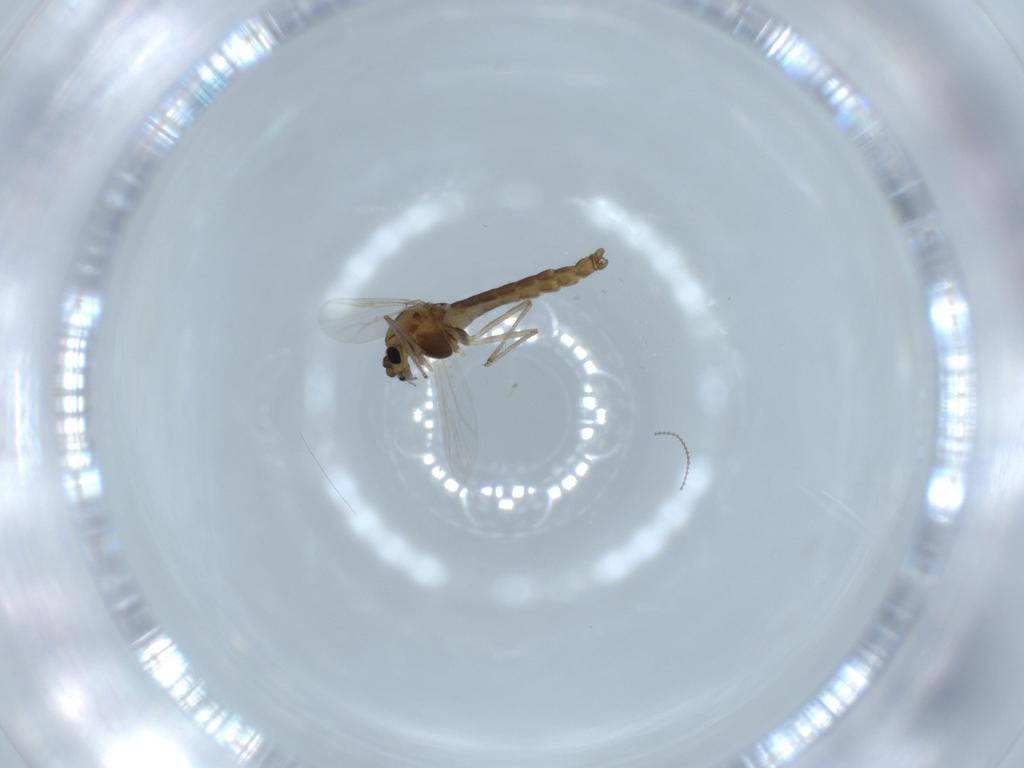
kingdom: Animalia
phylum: Arthropoda
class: Insecta
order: Diptera
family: Chironomidae
